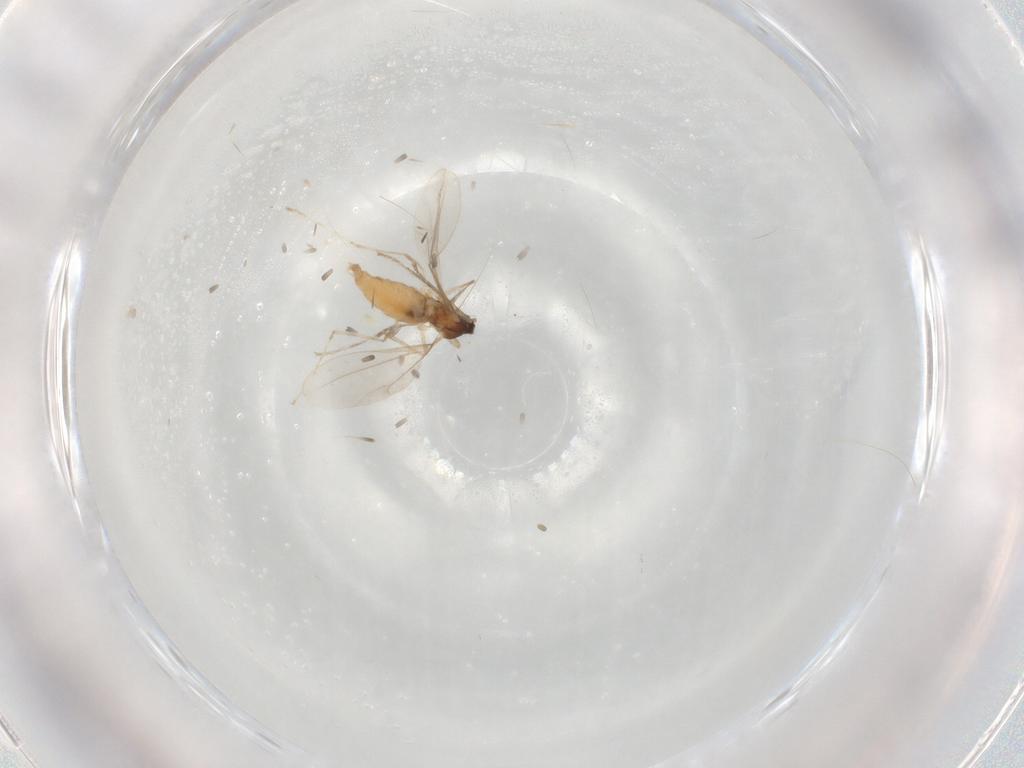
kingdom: Animalia
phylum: Arthropoda
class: Insecta
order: Diptera
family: Cecidomyiidae
